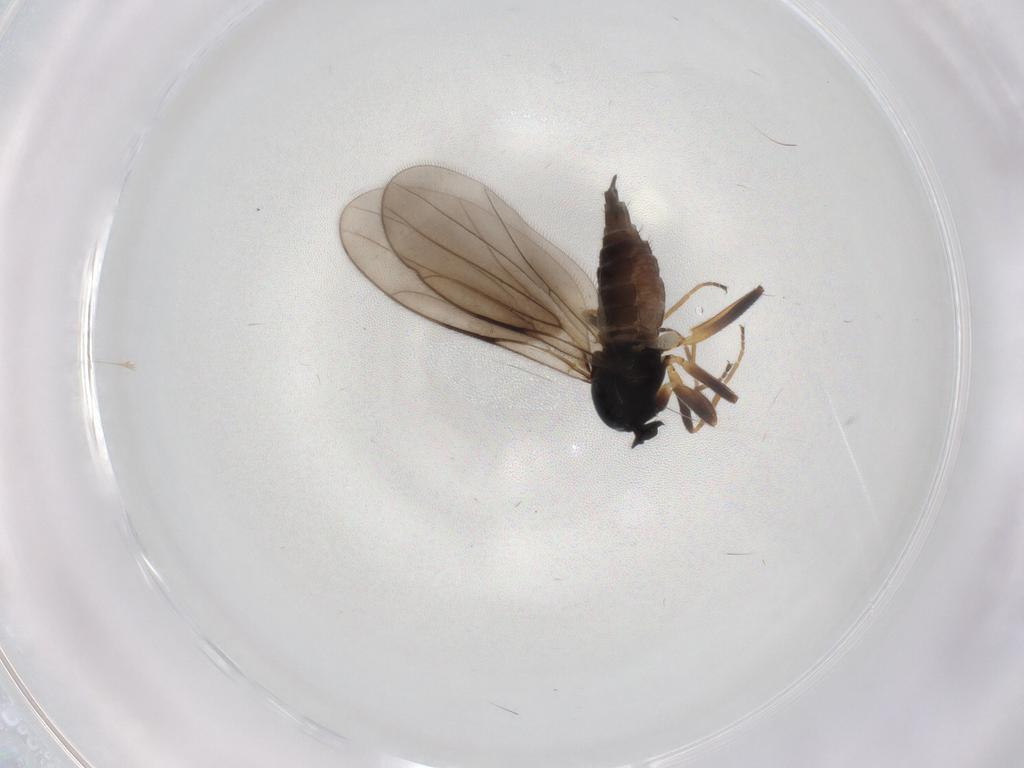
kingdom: Animalia
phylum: Arthropoda
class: Insecta
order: Diptera
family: Hybotidae
